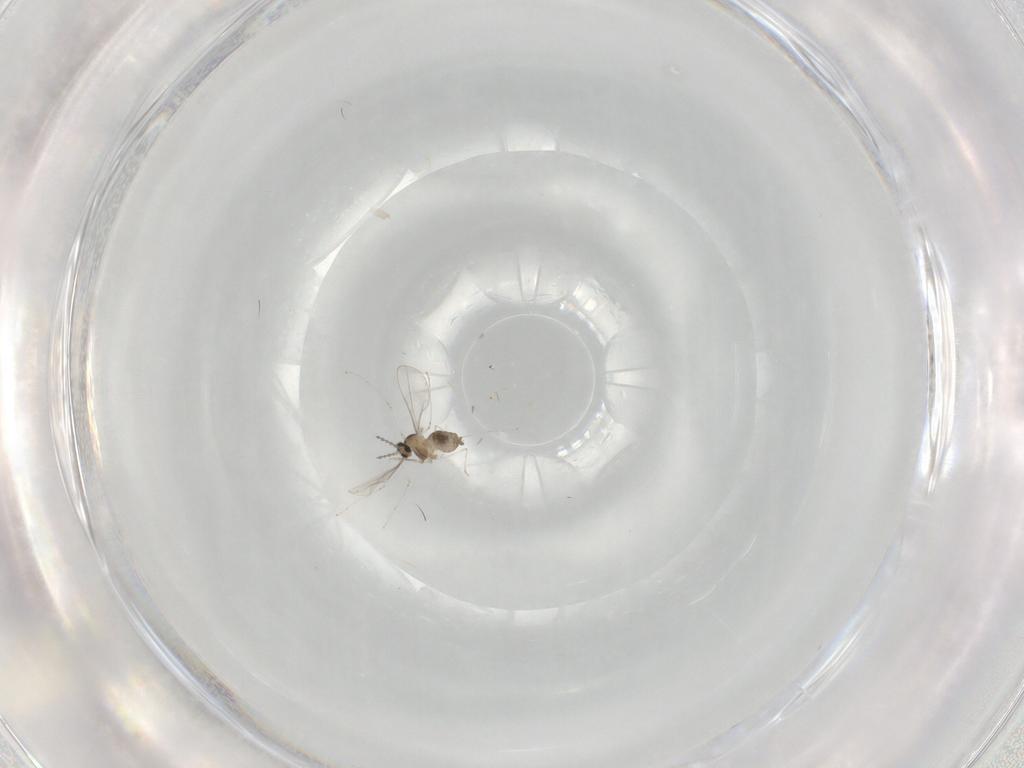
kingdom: Animalia
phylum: Arthropoda
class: Insecta
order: Diptera
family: Cecidomyiidae
